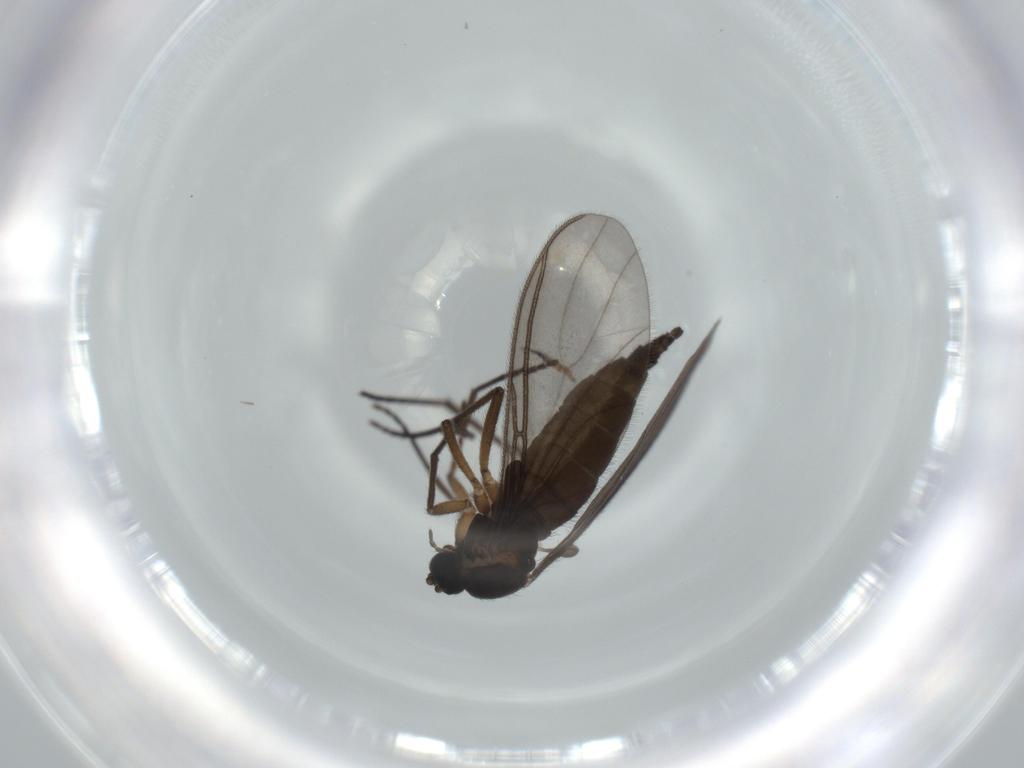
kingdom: Animalia
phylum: Arthropoda
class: Insecta
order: Diptera
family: Sciaridae
